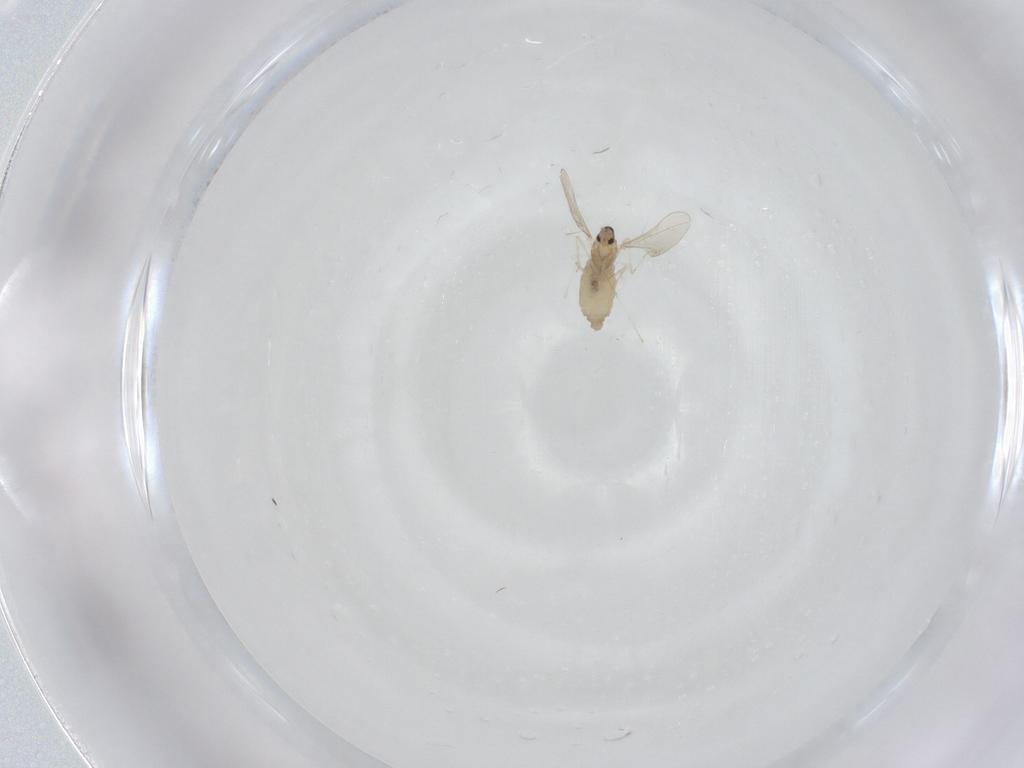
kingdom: Animalia
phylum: Arthropoda
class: Insecta
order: Diptera
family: Cecidomyiidae
